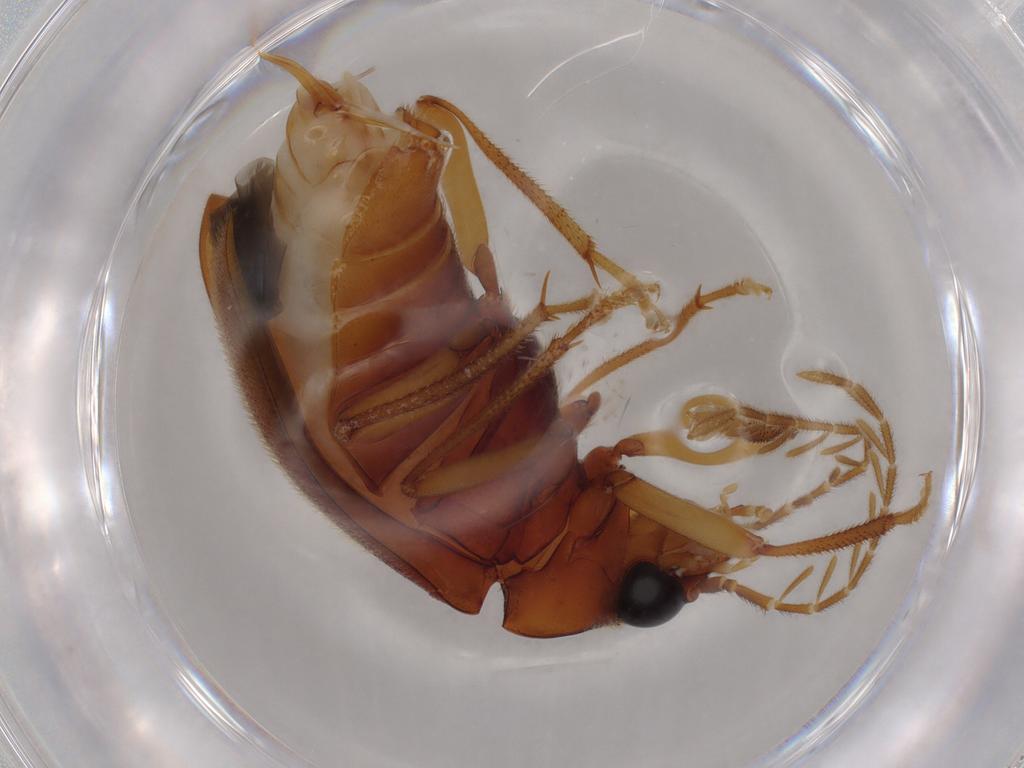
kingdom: Animalia
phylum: Arthropoda
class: Insecta
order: Coleoptera
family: Ptilodactylidae
